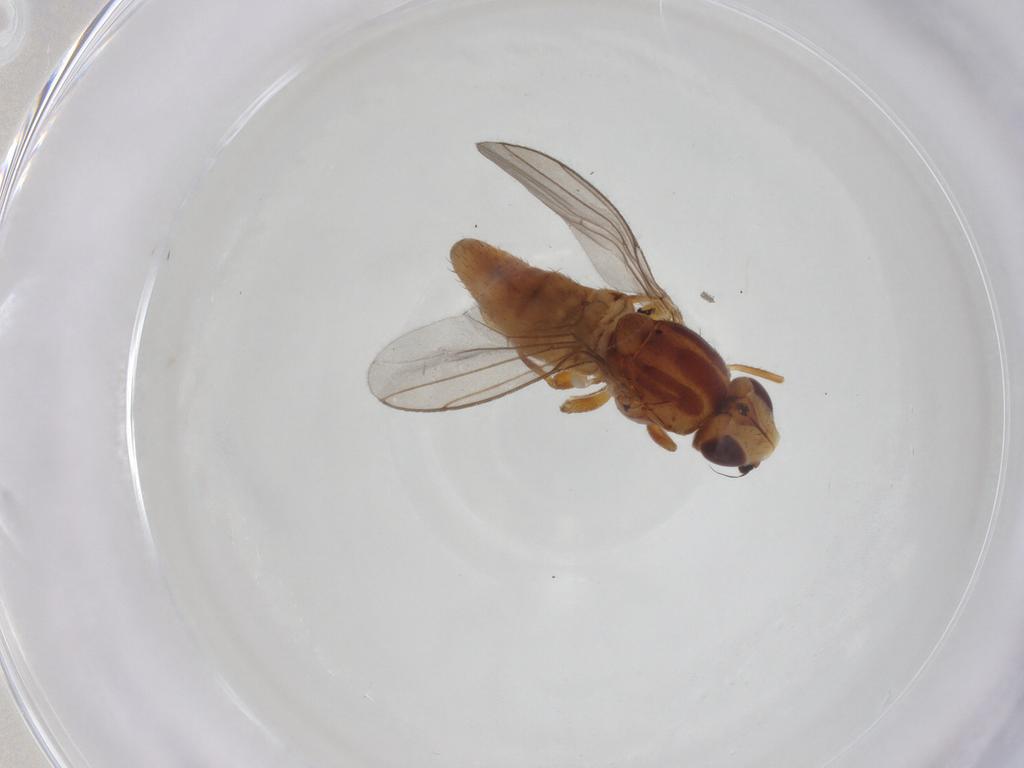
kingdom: Animalia
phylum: Arthropoda
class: Insecta
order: Diptera
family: Chloropidae
